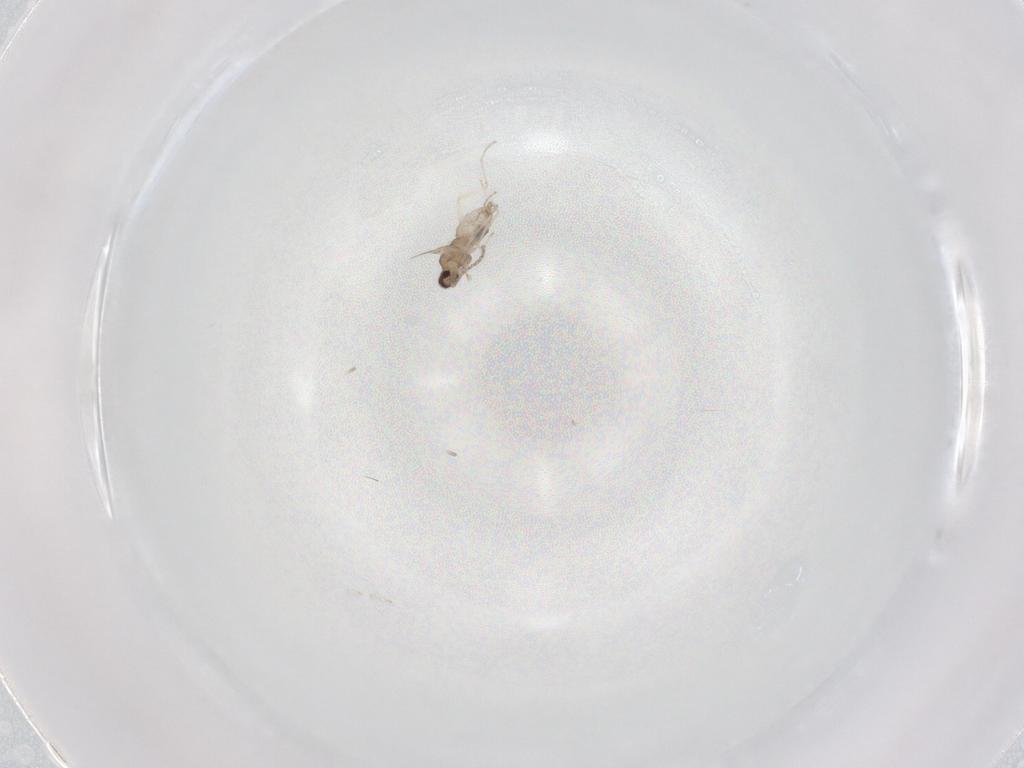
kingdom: Animalia
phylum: Arthropoda
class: Insecta
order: Diptera
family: Cecidomyiidae
